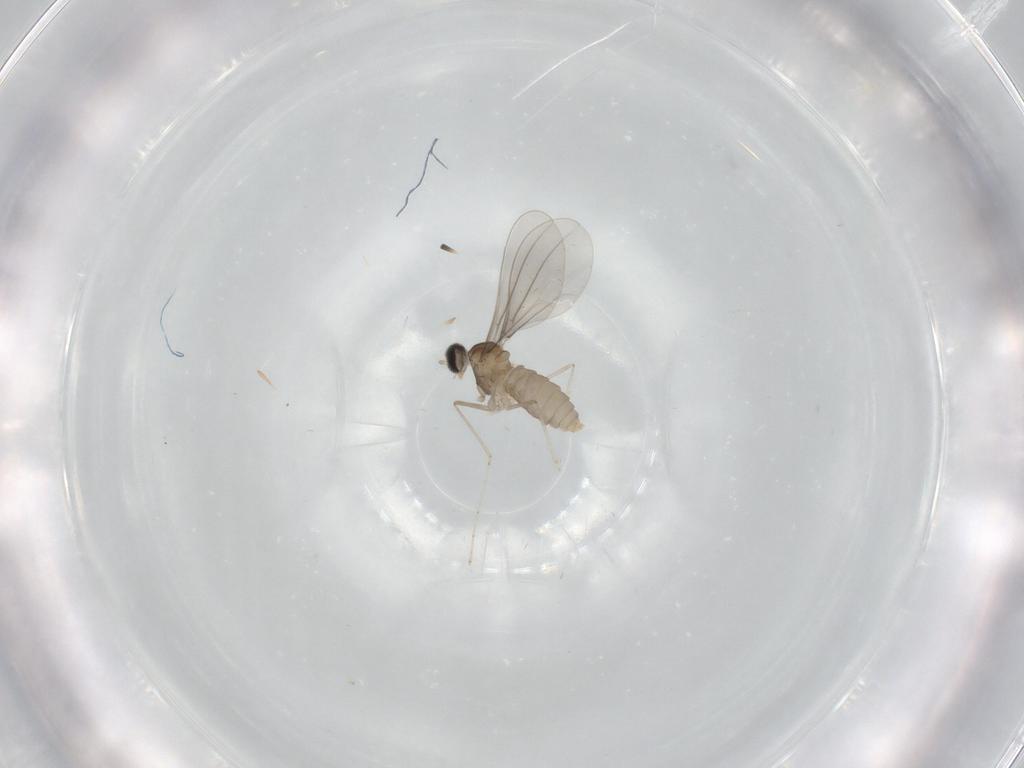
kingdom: Animalia
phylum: Arthropoda
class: Insecta
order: Diptera
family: Cecidomyiidae
